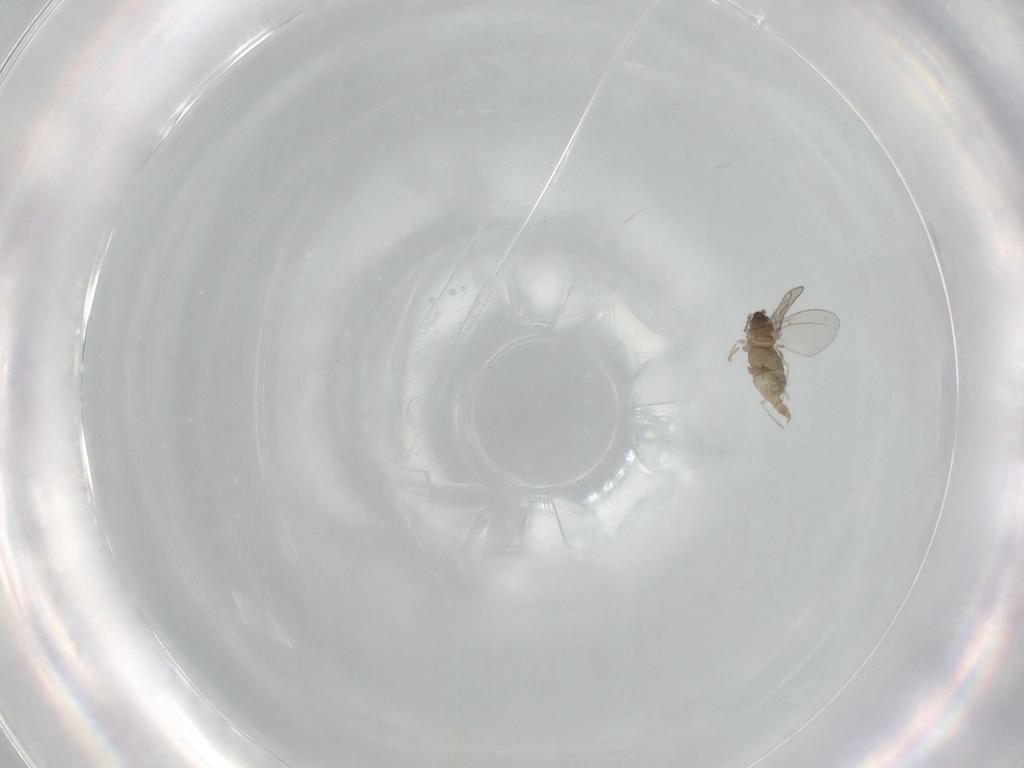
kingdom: Animalia
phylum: Arthropoda
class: Insecta
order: Diptera
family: Cecidomyiidae
